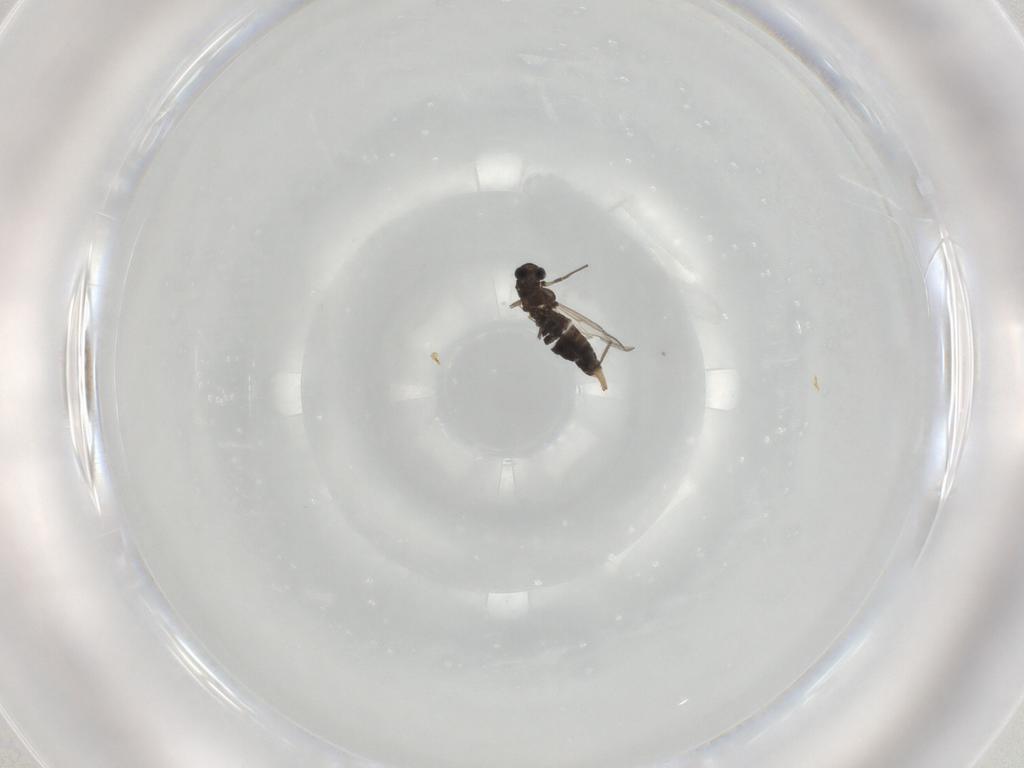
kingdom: Animalia
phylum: Arthropoda
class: Insecta
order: Diptera
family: Chironomidae
